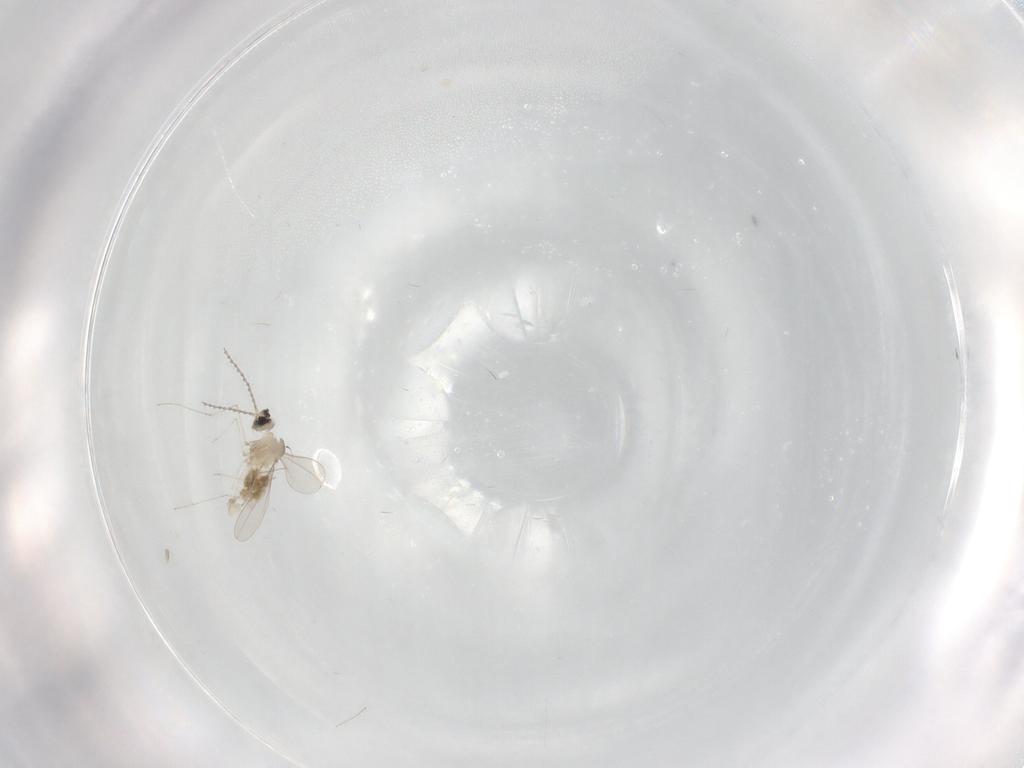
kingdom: Animalia
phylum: Arthropoda
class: Insecta
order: Diptera
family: Cecidomyiidae
